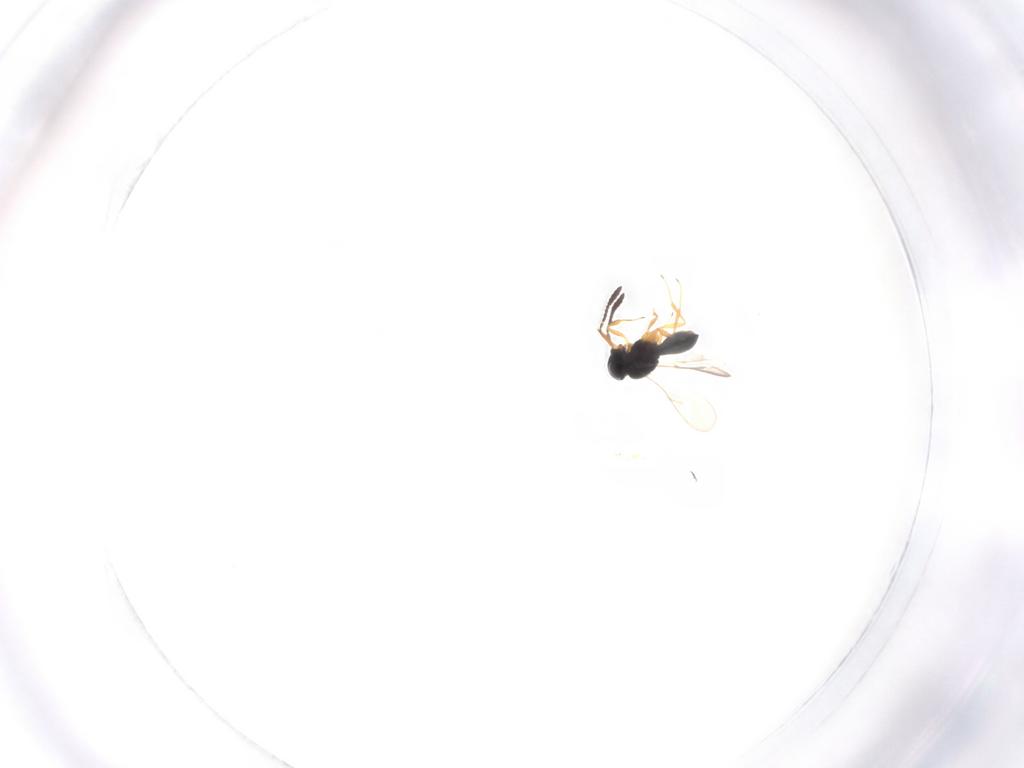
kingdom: Animalia
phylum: Arthropoda
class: Insecta
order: Hymenoptera
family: Scelionidae
